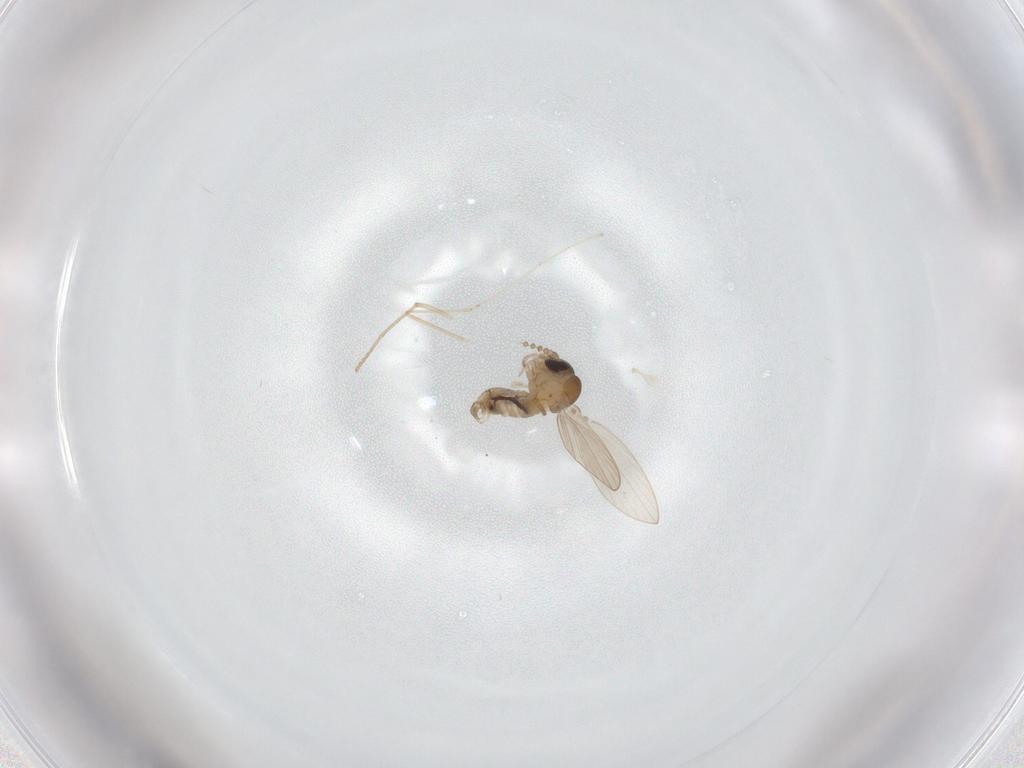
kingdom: Animalia
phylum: Arthropoda
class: Insecta
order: Diptera
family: Psychodidae
